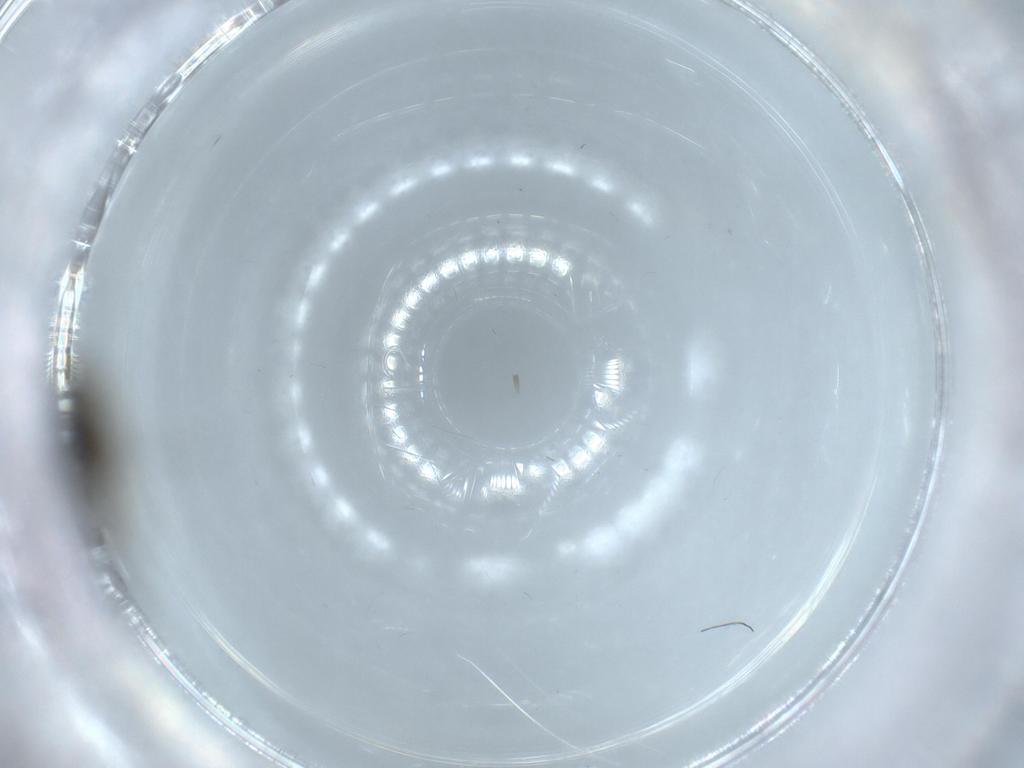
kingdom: Animalia
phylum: Arthropoda
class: Insecta
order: Diptera
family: Chironomidae
